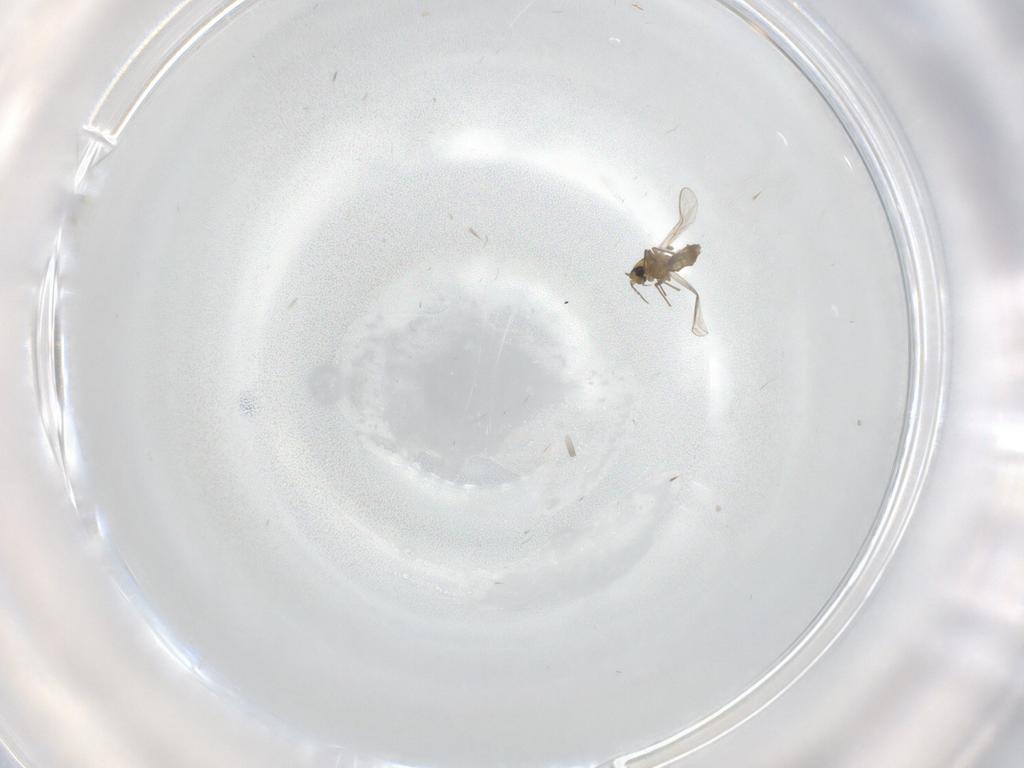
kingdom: Animalia
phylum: Arthropoda
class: Insecta
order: Diptera
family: Chironomidae
